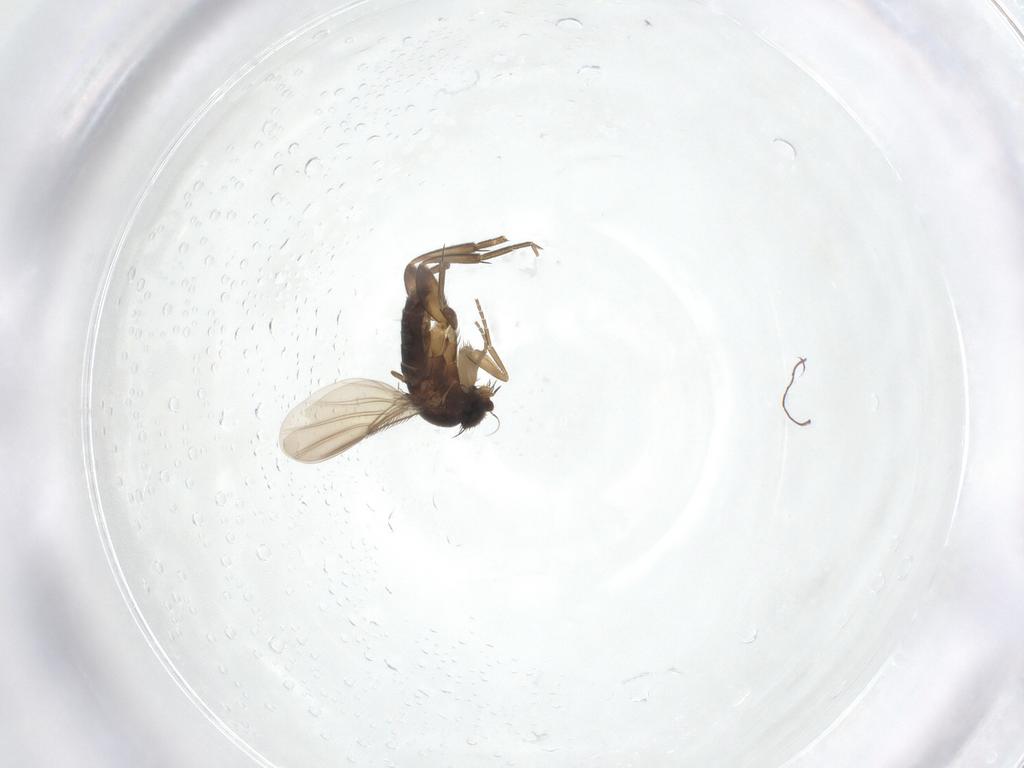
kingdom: Animalia
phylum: Arthropoda
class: Insecta
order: Diptera
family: Phoridae
